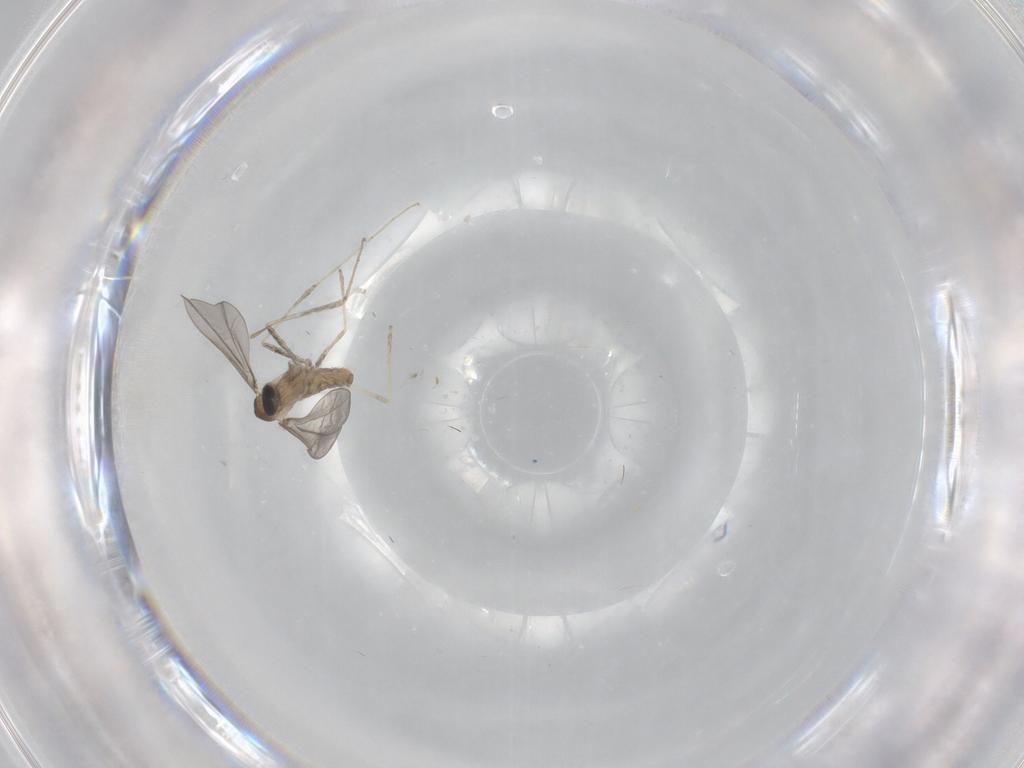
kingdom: Animalia
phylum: Arthropoda
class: Insecta
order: Diptera
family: Cecidomyiidae
